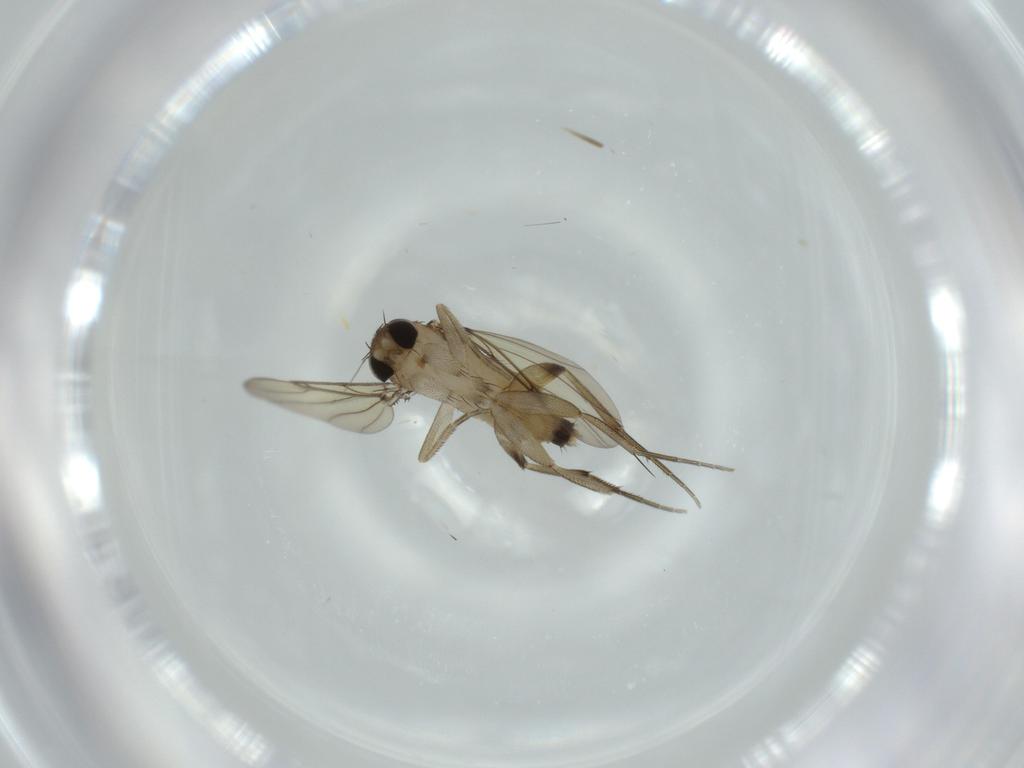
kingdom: Animalia
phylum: Arthropoda
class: Insecta
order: Diptera
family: Phoridae
